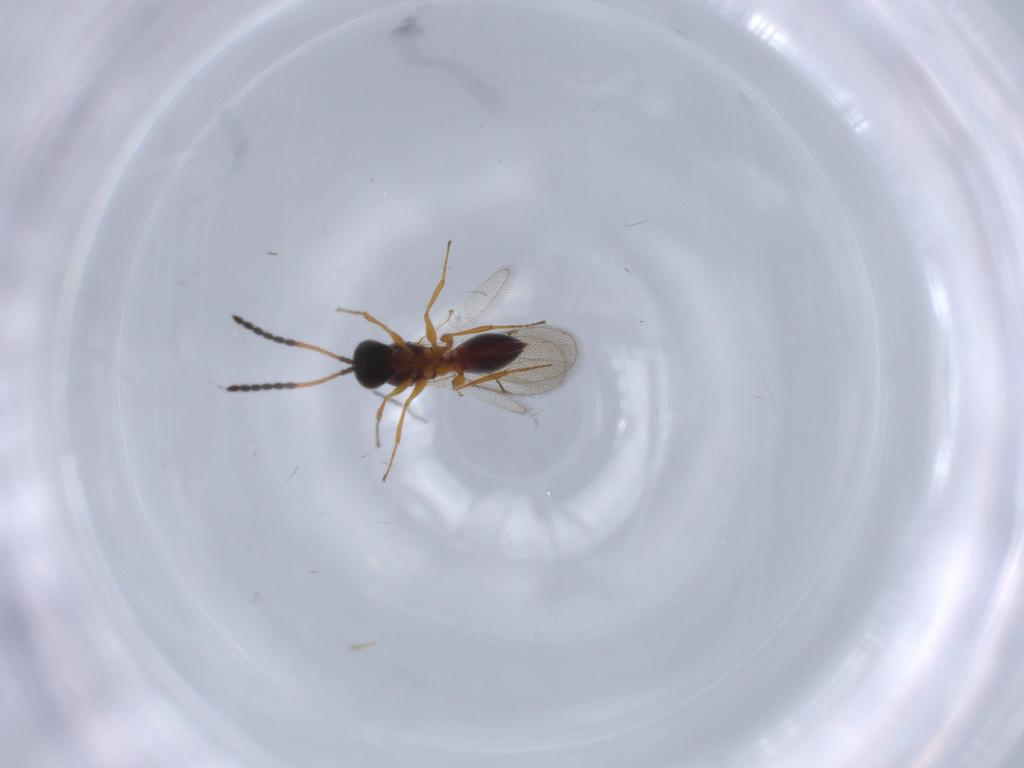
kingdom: Animalia
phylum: Arthropoda
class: Insecta
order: Hymenoptera
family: Figitidae
